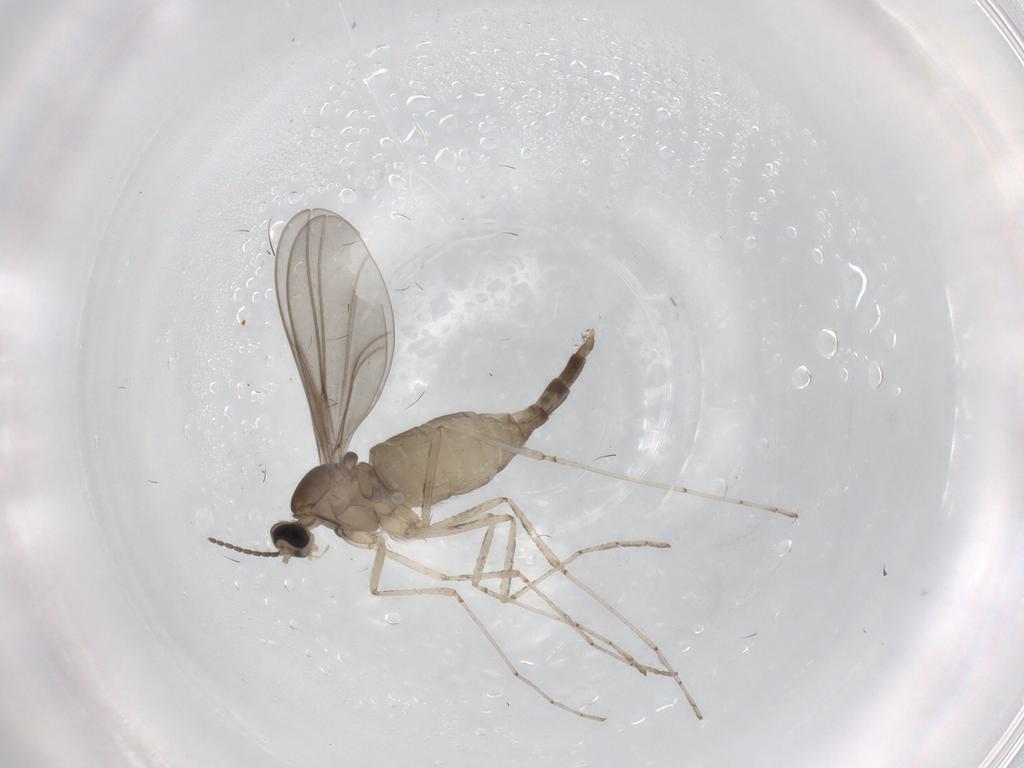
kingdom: Animalia
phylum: Arthropoda
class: Insecta
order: Diptera
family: Cecidomyiidae
